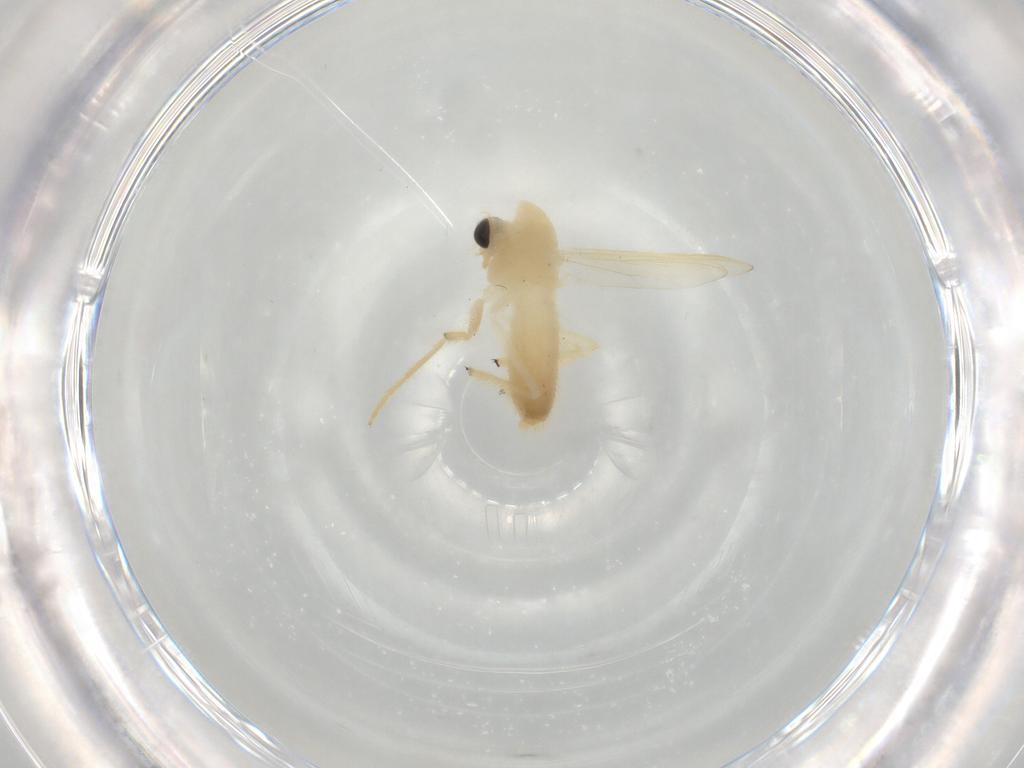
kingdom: Animalia
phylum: Arthropoda
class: Insecta
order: Diptera
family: Chironomidae
